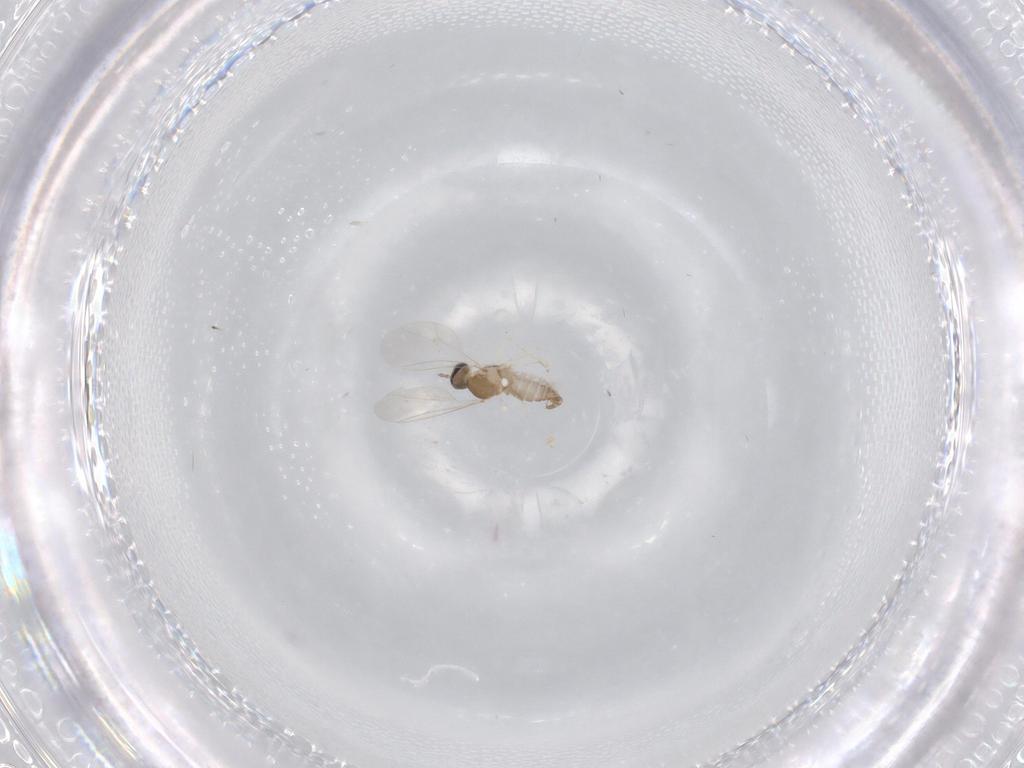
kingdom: Animalia
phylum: Arthropoda
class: Insecta
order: Diptera
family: Cecidomyiidae
